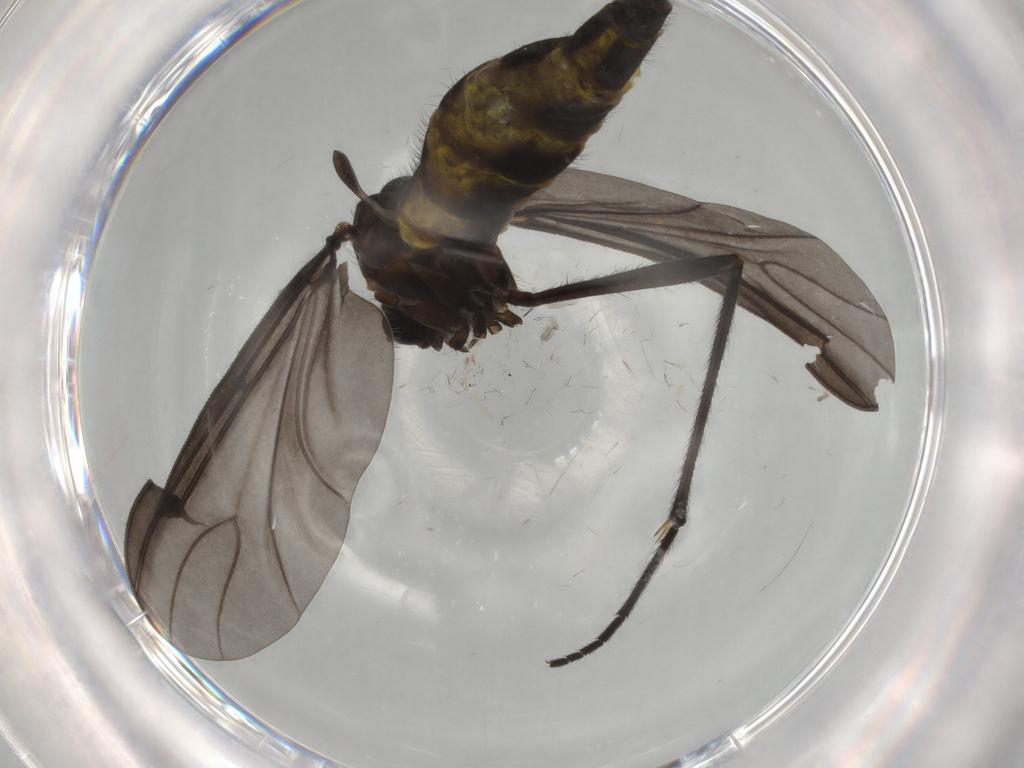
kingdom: Animalia
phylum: Arthropoda
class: Insecta
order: Diptera
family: Sciaridae
